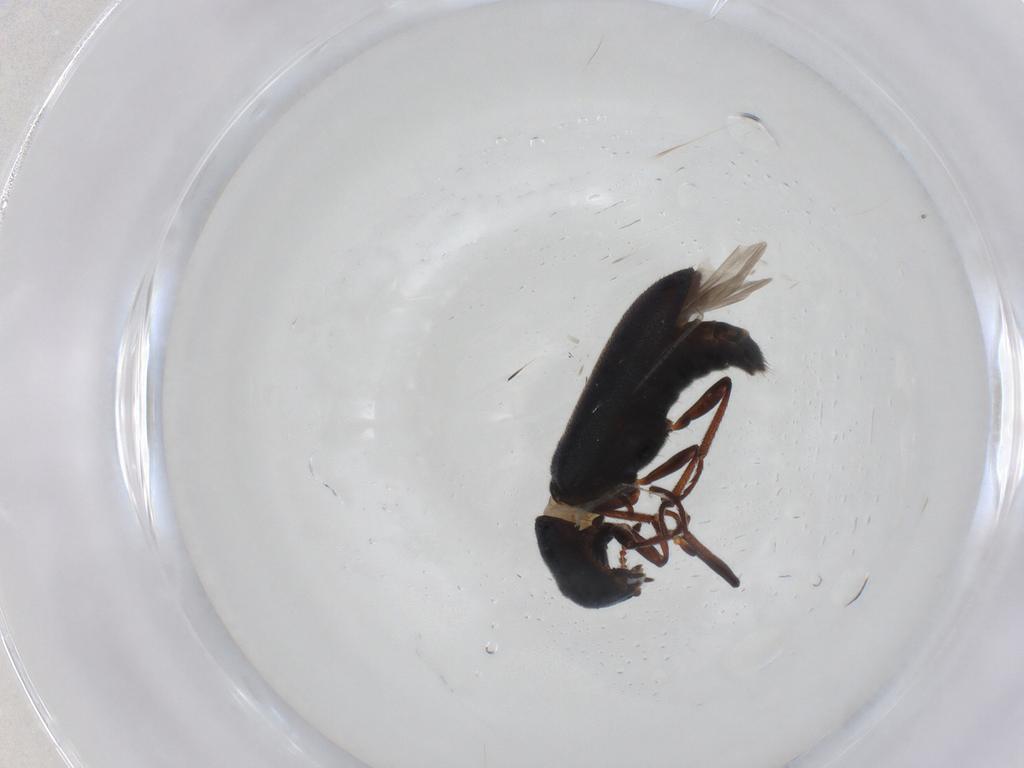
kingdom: Animalia
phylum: Arthropoda
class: Insecta
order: Coleoptera
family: Melyridae
